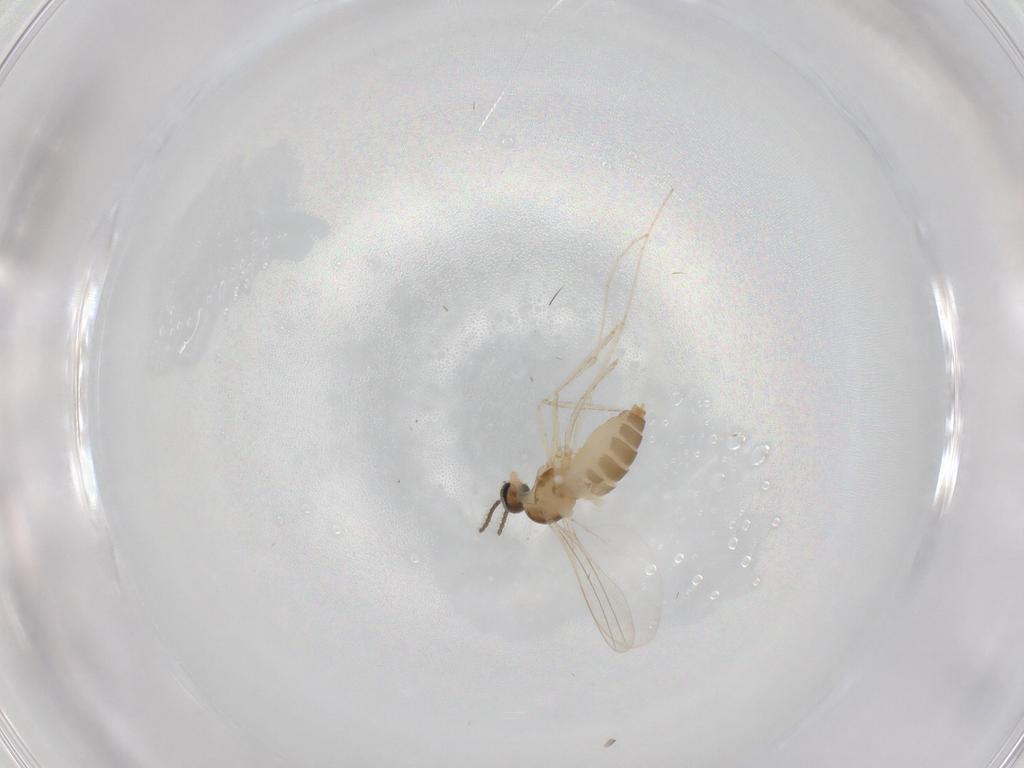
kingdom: Animalia
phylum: Arthropoda
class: Insecta
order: Diptera
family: Cecidomyiidae
